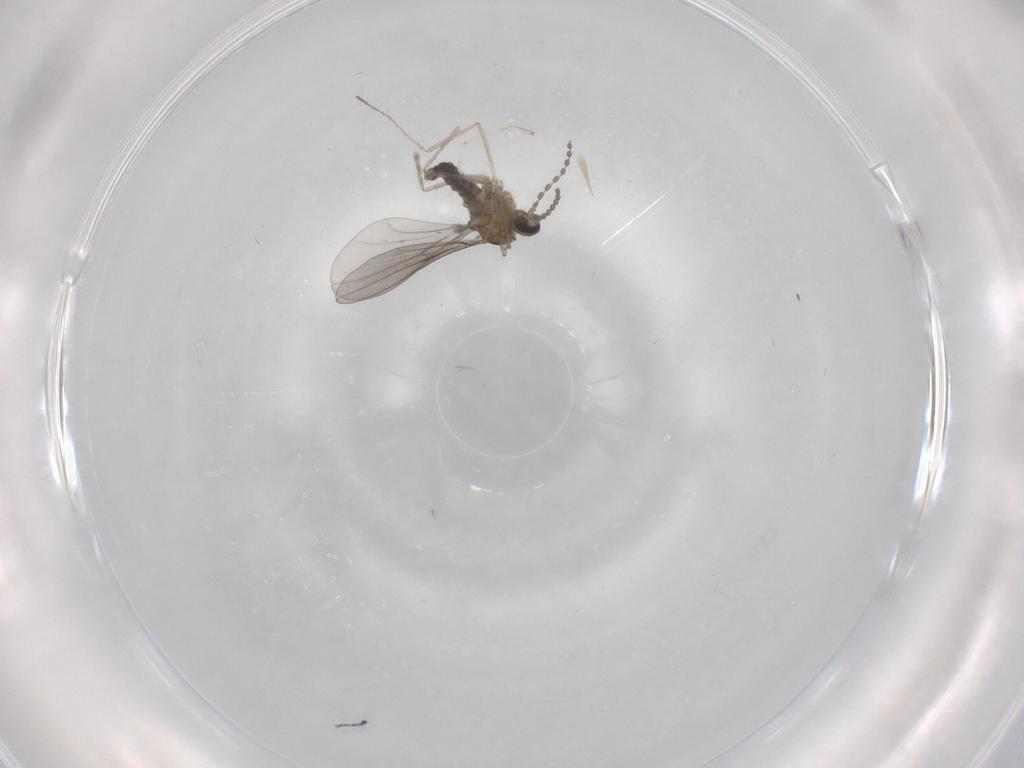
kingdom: Animalia
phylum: Arthropoda
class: Insecta
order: Diptera
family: Cecidomyiidae
